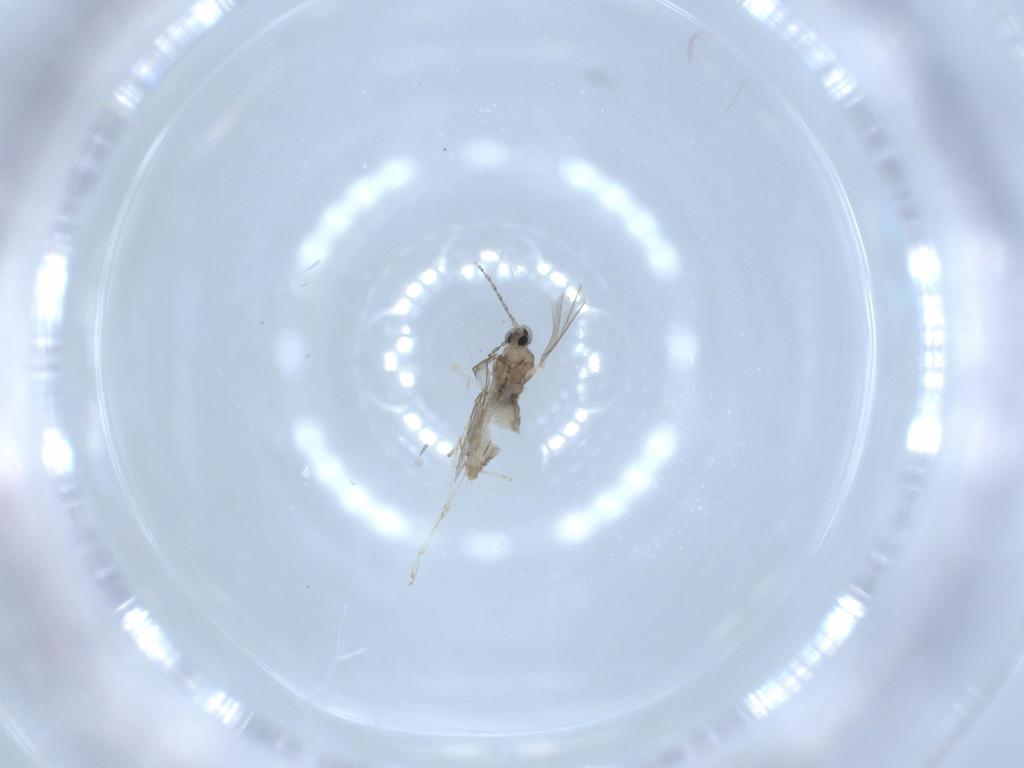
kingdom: Animalia
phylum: Arthropoda
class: Insecta
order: Diptera
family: Cecidomyiidae
